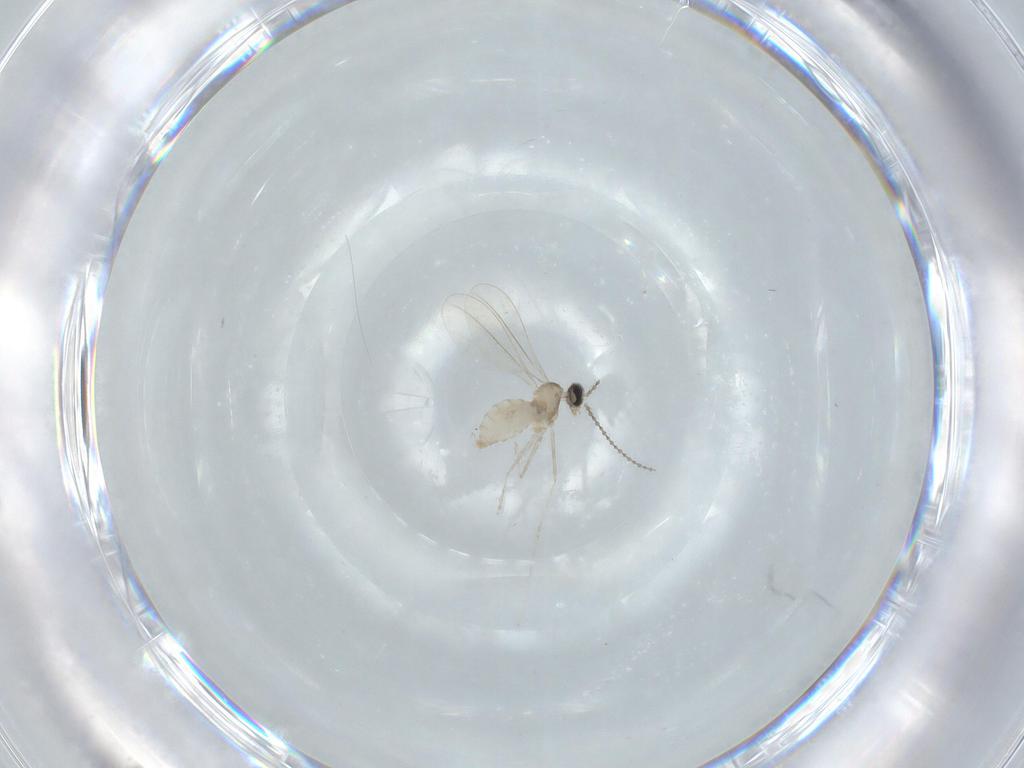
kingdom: Animalia
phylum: Arthropoda
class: Insecta
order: Diptera
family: Cecidomyiidae
